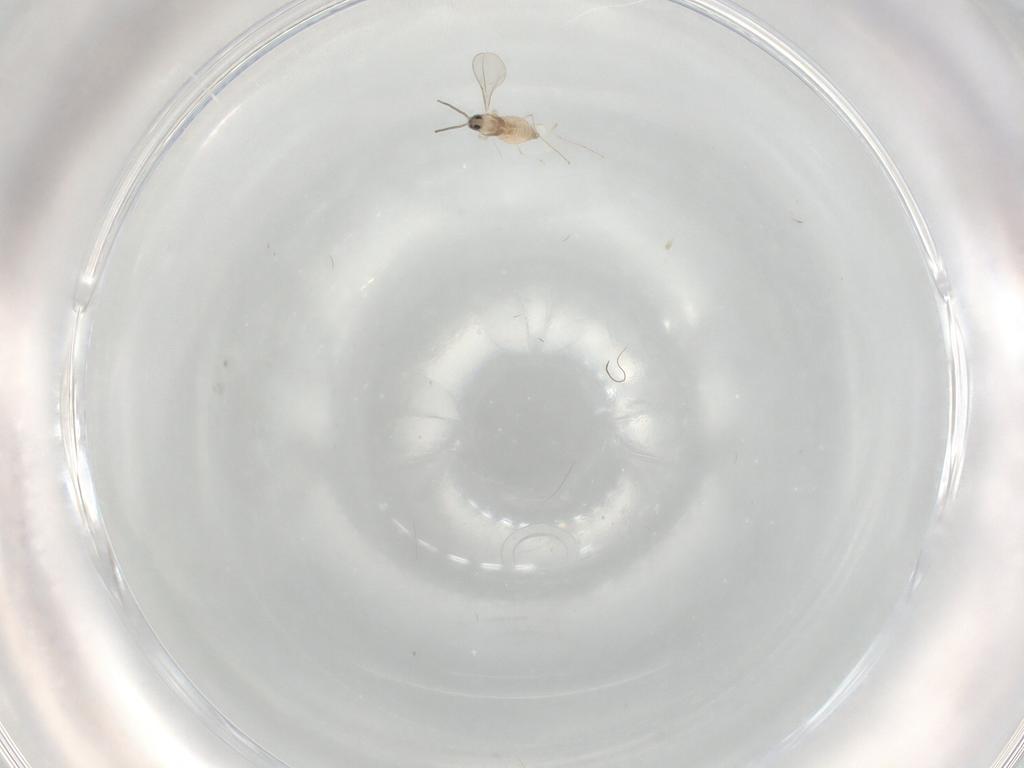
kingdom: Animalia
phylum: Arthropoda
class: Insecta
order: Diptera
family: Cecidomyiidae
